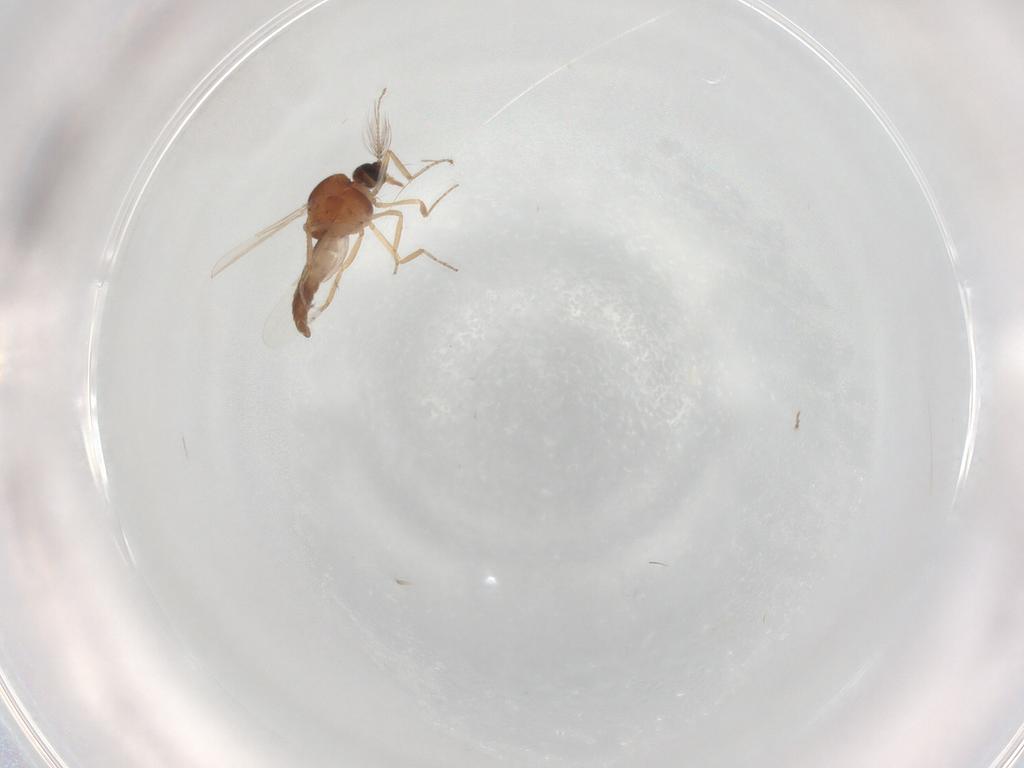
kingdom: Animalia
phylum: Arthropoda
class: Insecta
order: Diptera
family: Ceratopogonidae
